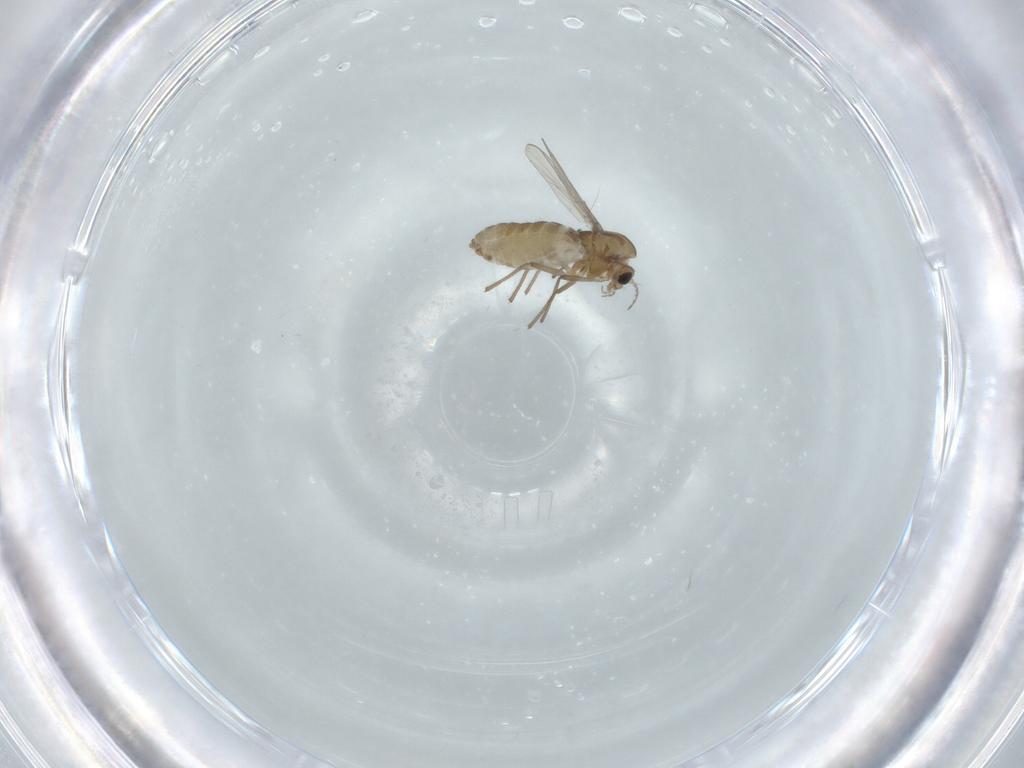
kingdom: Animalia
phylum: Arthropoda
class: Insecta
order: Diptera
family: Chironomidae
